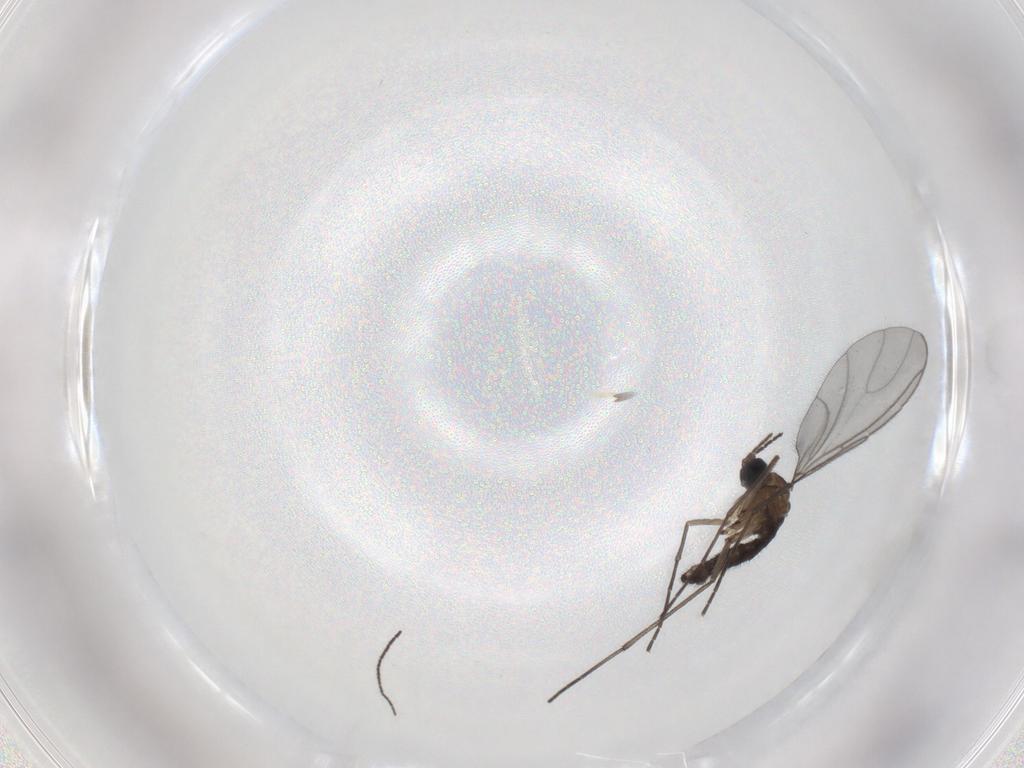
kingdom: Animalia
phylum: Arthropoda
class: Insecta
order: Diptera
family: Sciaridae
